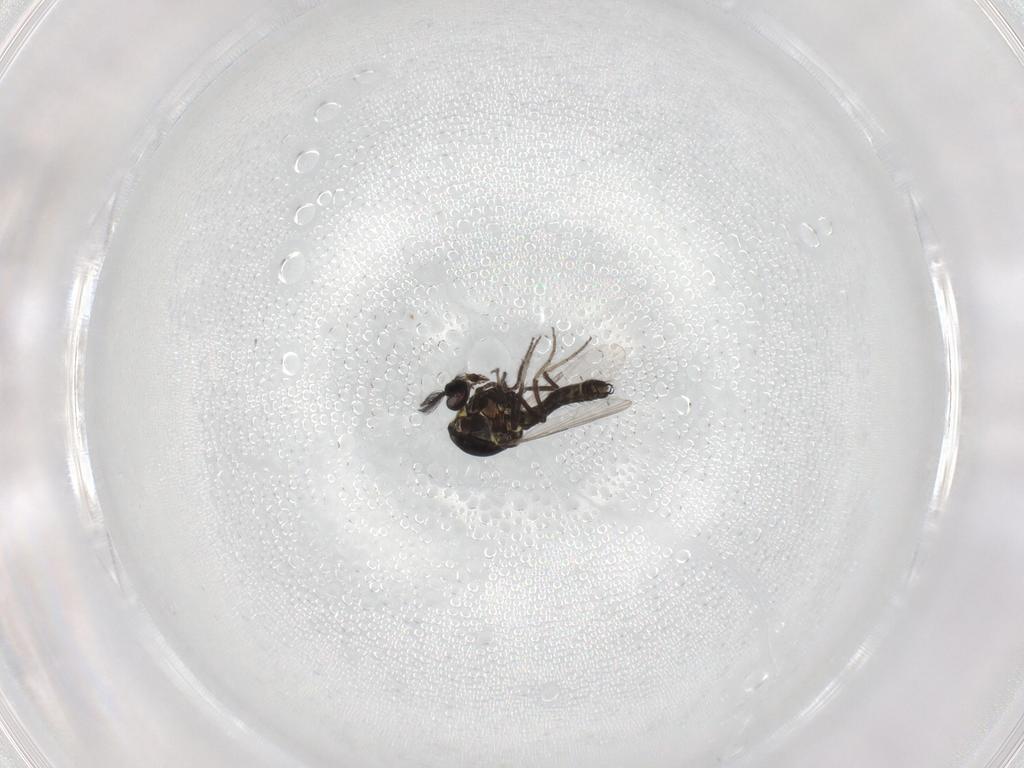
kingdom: Animalia
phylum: Arthropoda
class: Insecta
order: Diptera
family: Ceratopogonidae
